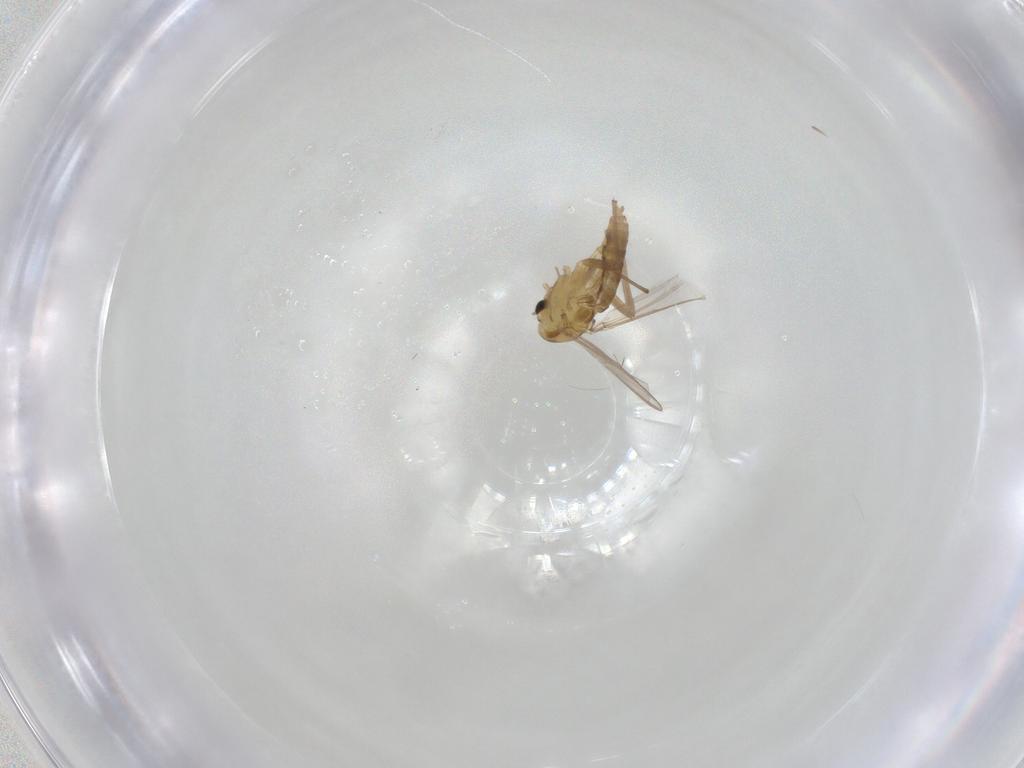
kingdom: Animalia
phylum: Arthropoda
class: Insecta
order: Diptera
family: Chironomidae
